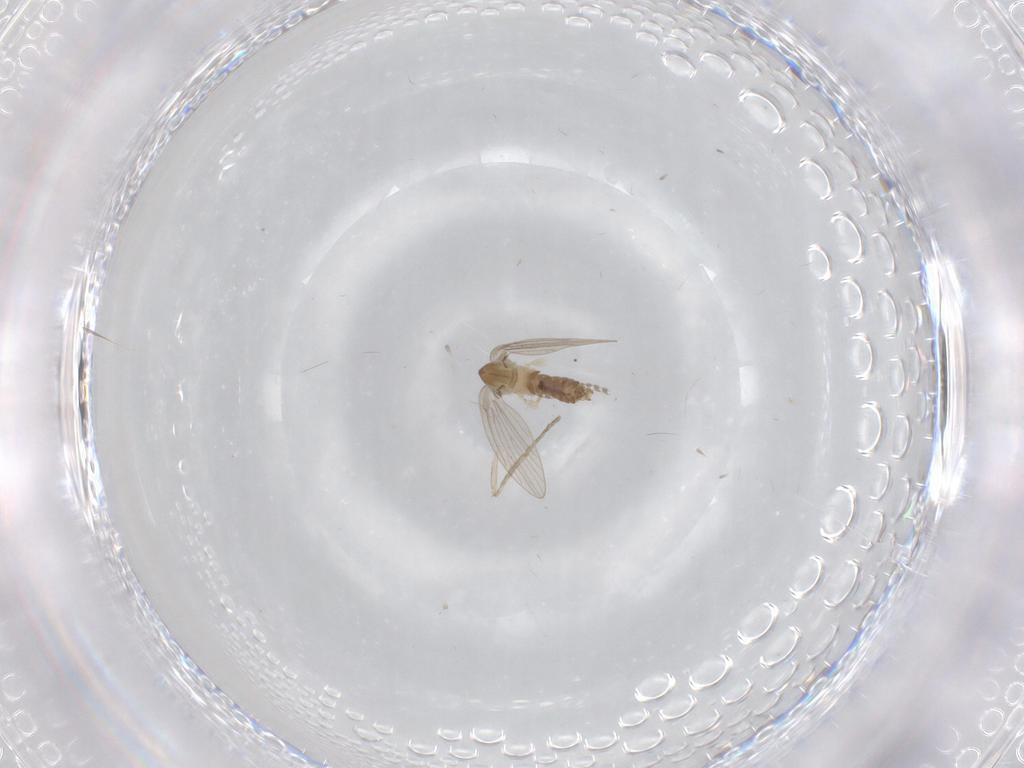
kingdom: Animalia
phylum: Arthropoda
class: Insecta
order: Diptera
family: Psychodidae
